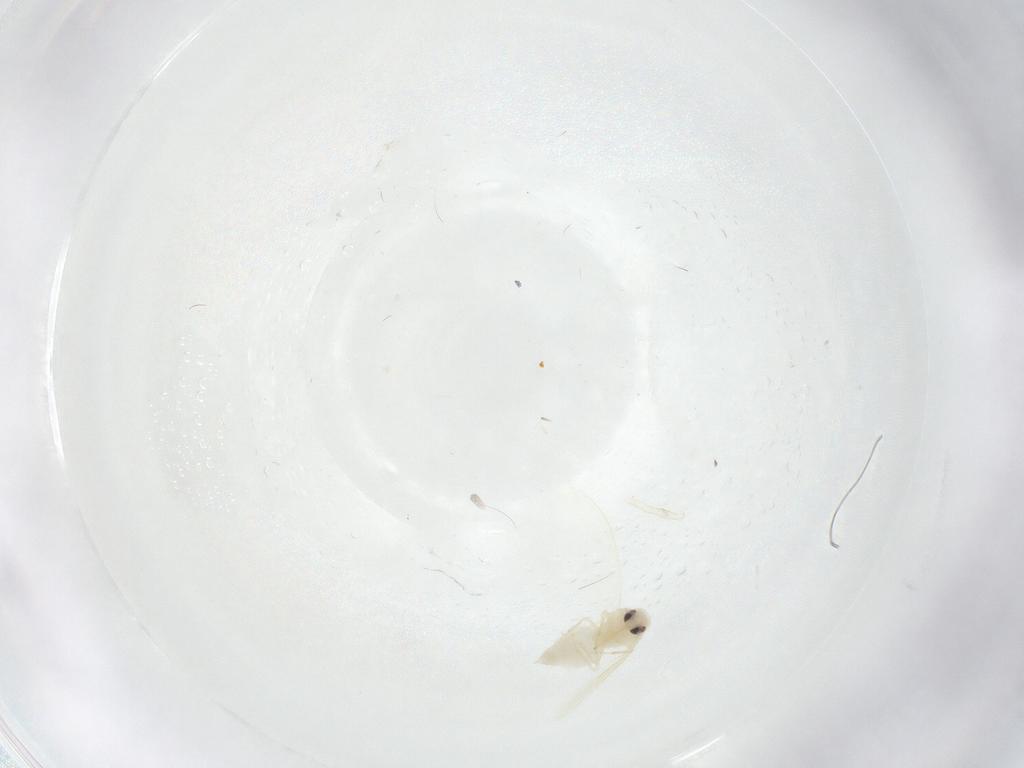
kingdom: Animalia
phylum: Arthropoda
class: Insecta
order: Hemiptera
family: Aleyrodidae
